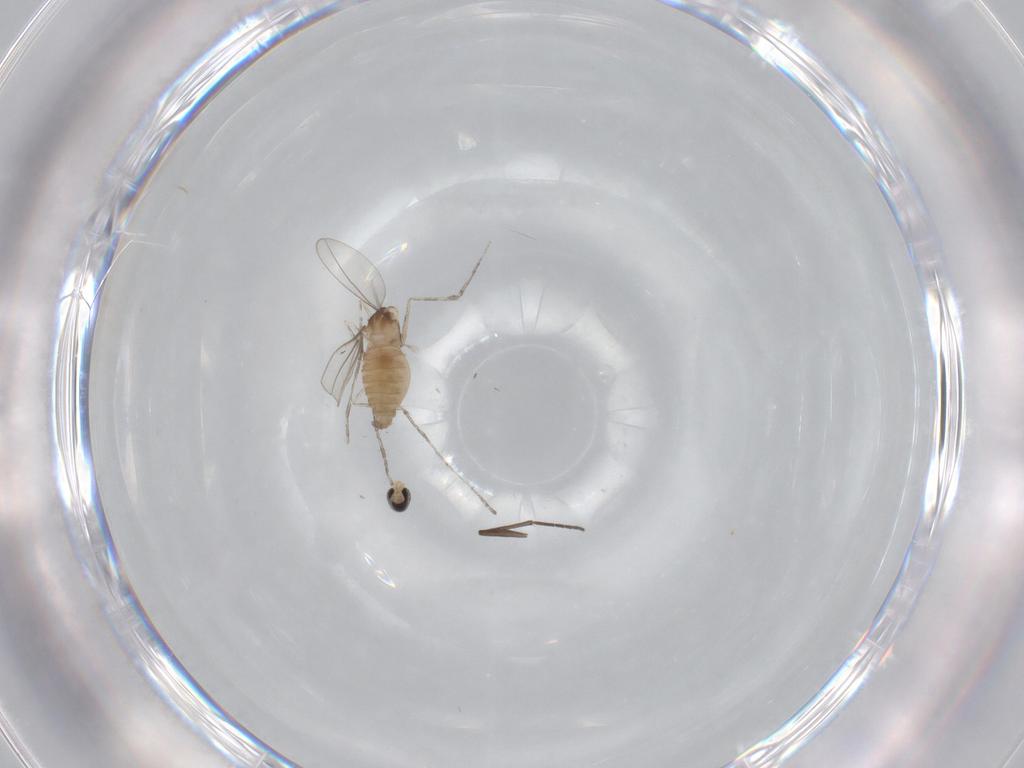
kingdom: Animalia
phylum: Arthropoda
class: Insecta
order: Diptera
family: Cecidomyiidae
